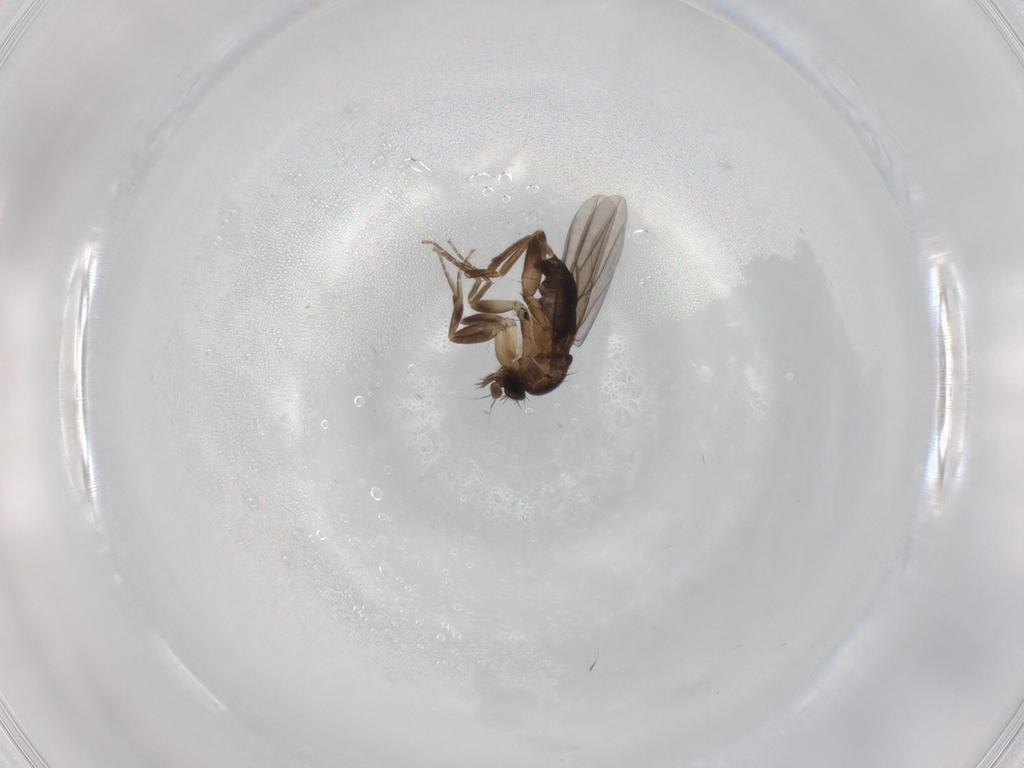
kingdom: Animalia
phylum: Arthropoda
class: Insecta
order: Diptera
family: Phoridae
